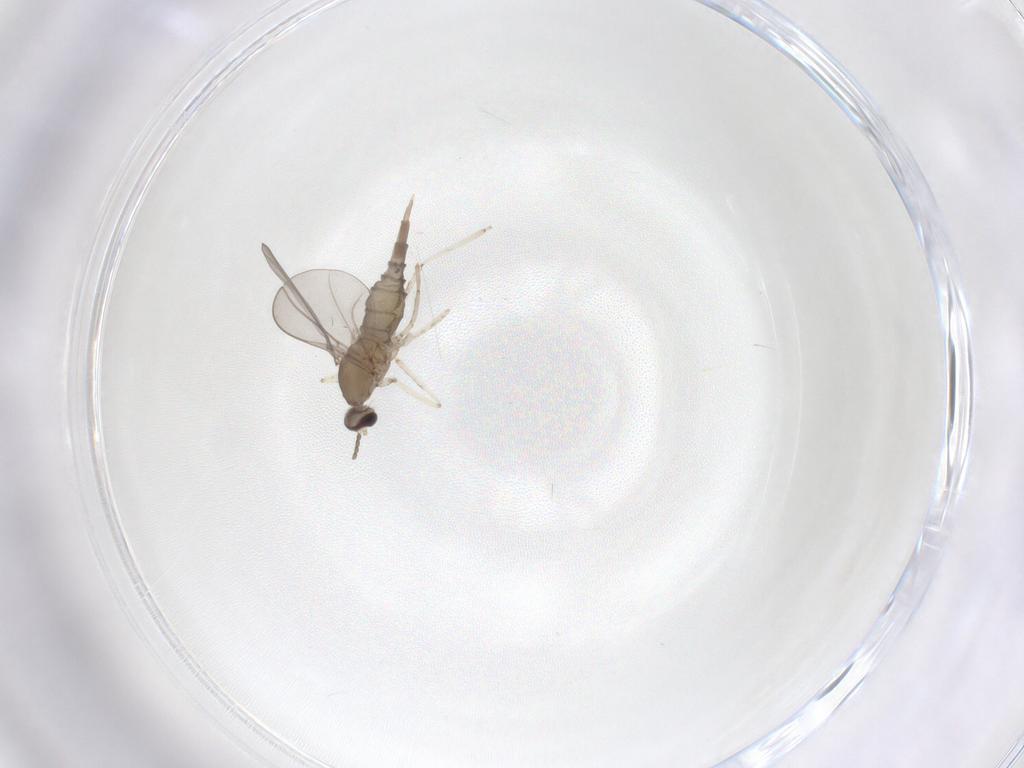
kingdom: Animalia
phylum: Arthropoda
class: Insecta
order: Diptera
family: Cecidomyiidae
